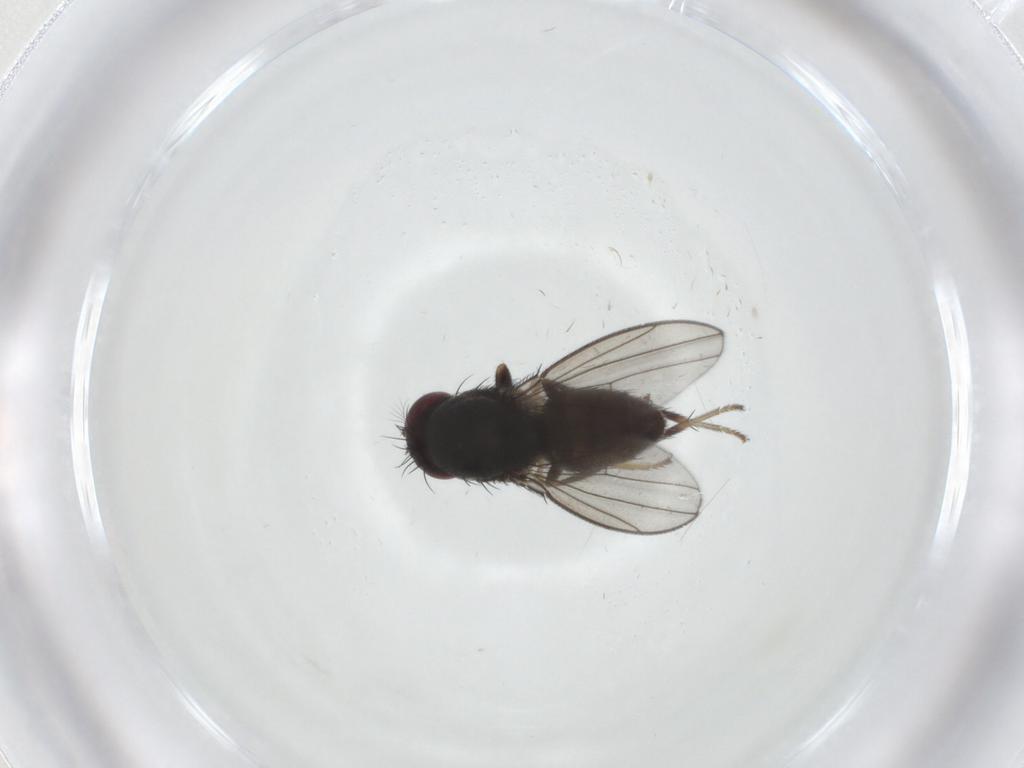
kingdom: Animalia
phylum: Arthropoda
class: Insecta
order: Diptera
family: Ephydridae
